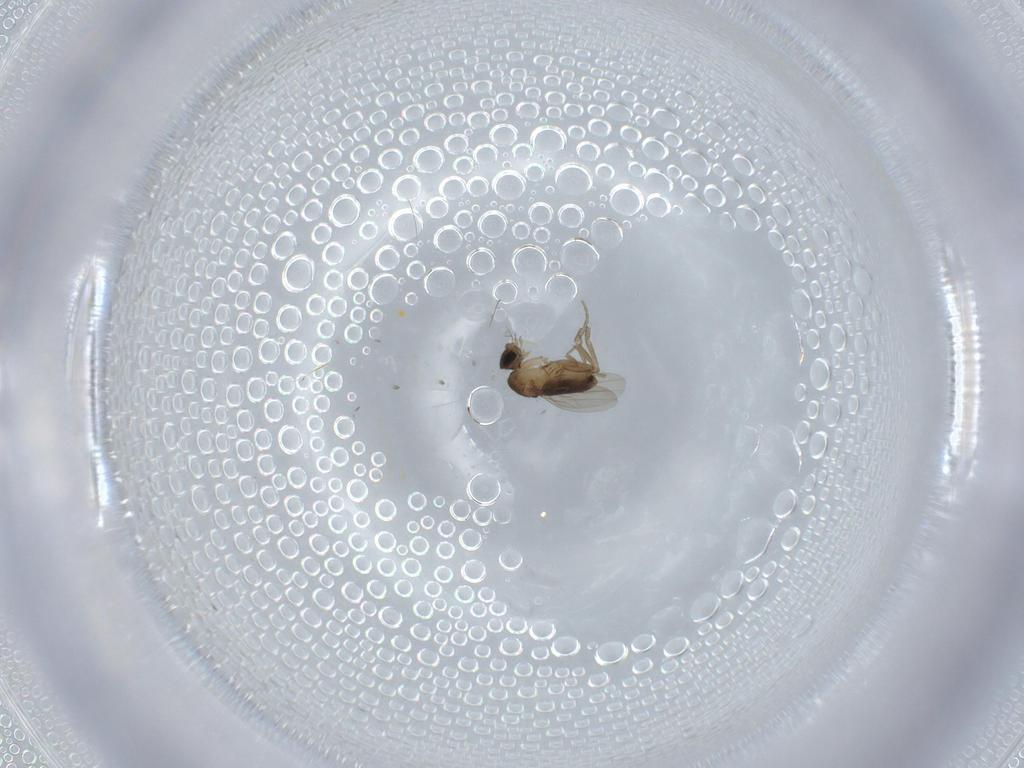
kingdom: Animalia
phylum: Arthropoda
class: Insecta
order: Diptera
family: Phoridae
